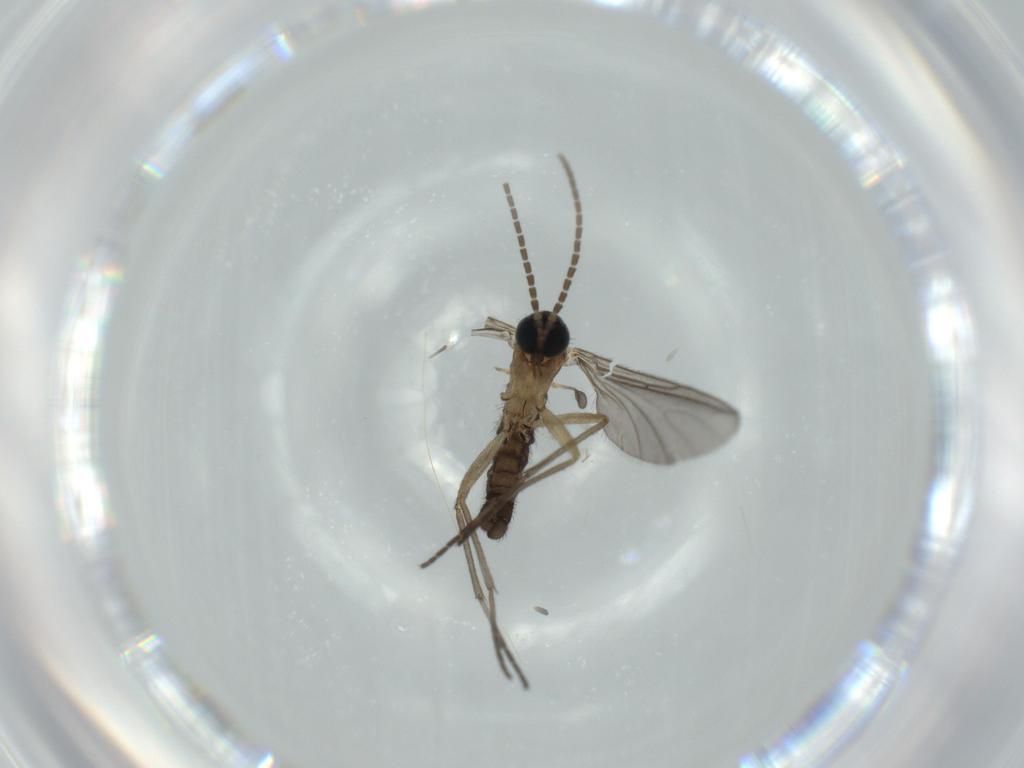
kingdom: Animalia
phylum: Arthropoda
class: Insecta
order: Diptera
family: Sciaridae
